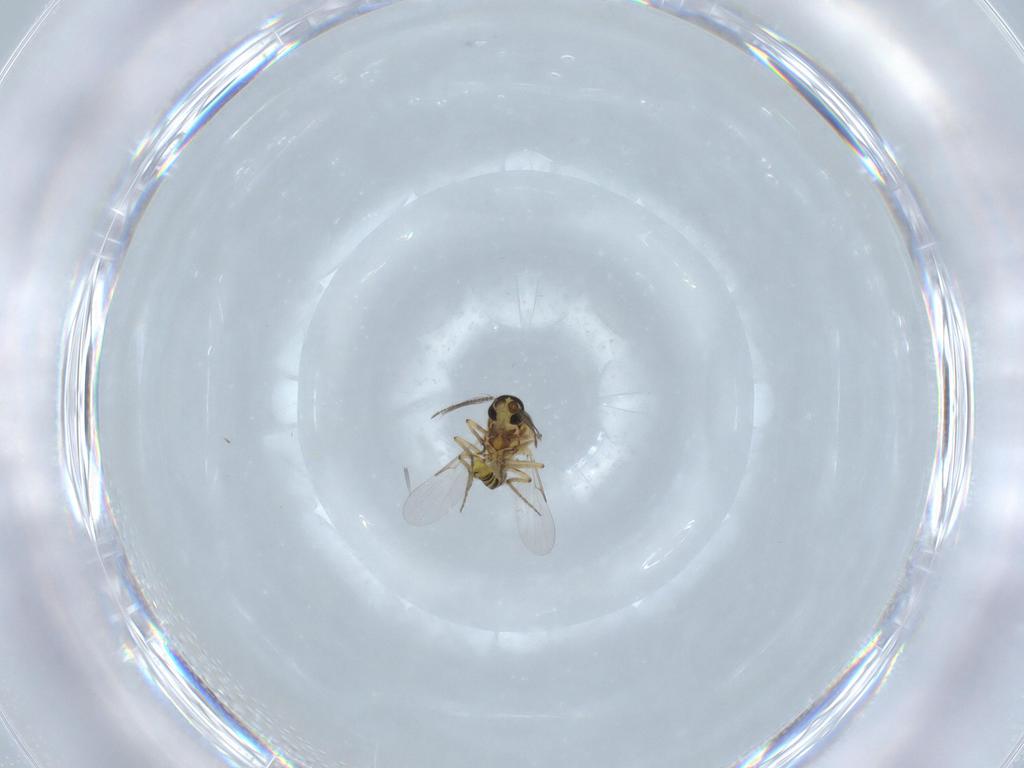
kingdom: Animalia
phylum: Arthropoda
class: Insecta
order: Diptera
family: Ceratopogonidae
